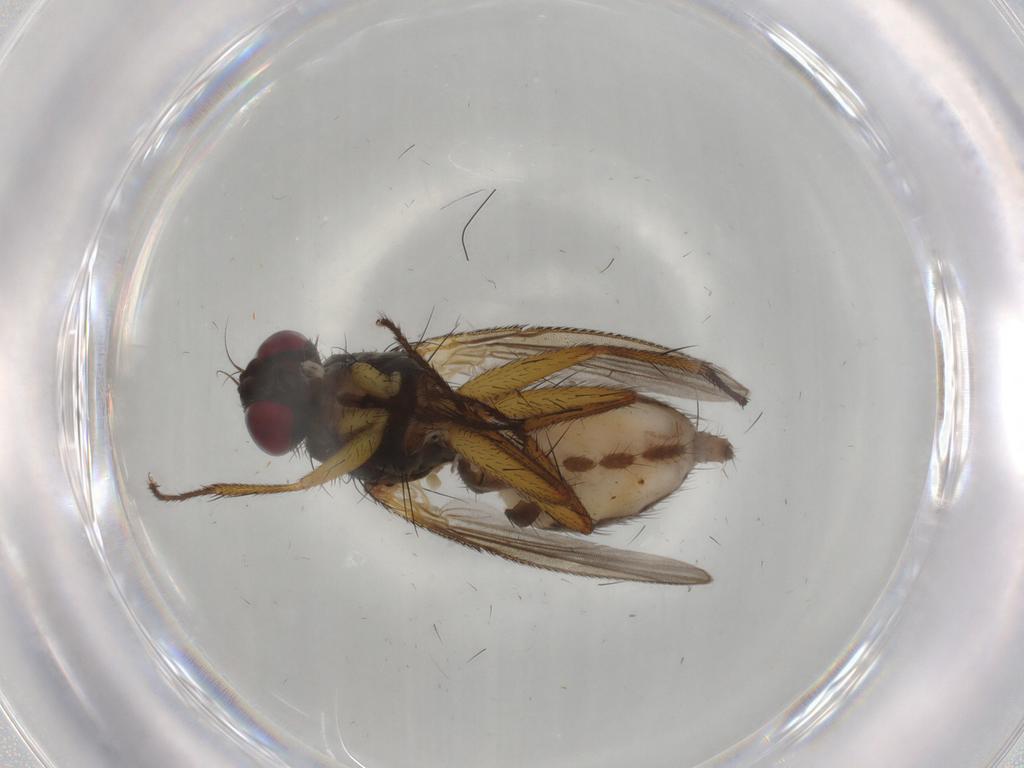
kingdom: Animalia
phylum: Arthropoda
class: Insecta
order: Diptera
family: Muscidae
